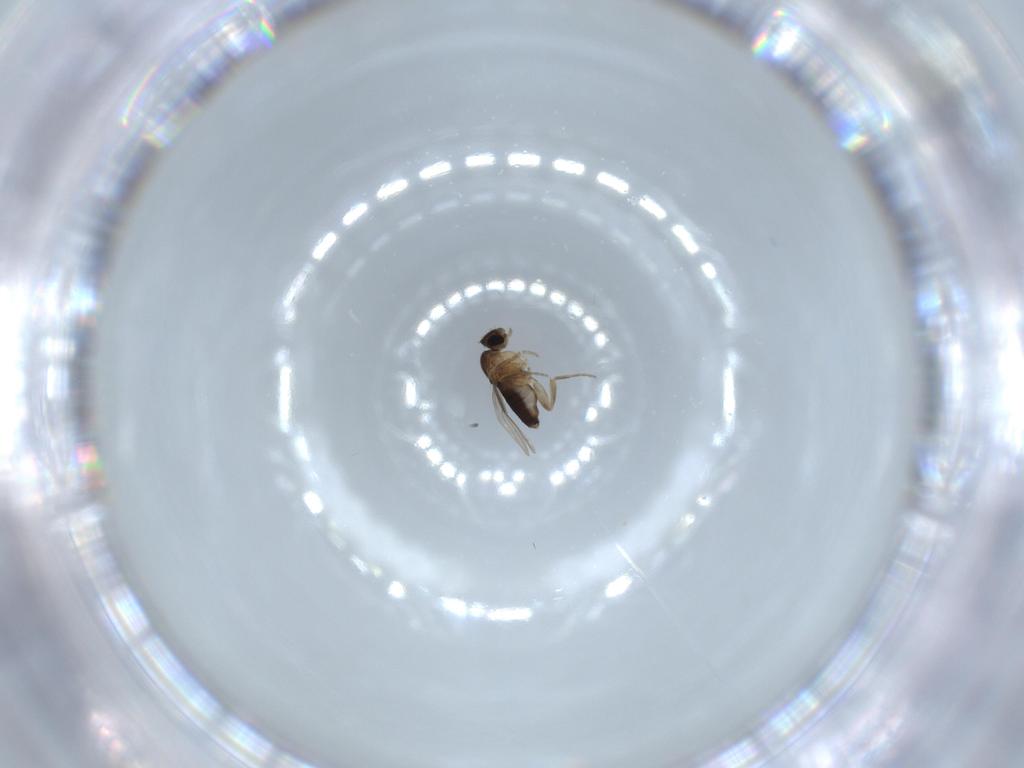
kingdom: Animalia
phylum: Arthropoda
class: Insecta
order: Diptera
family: Phoridae
